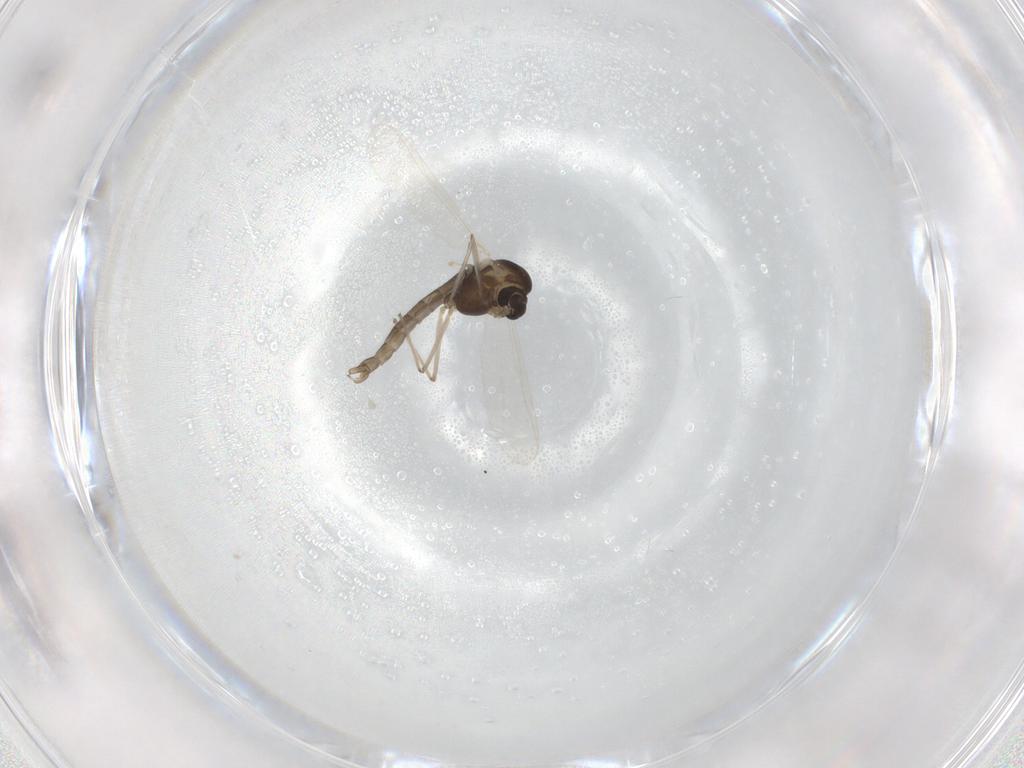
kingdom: Animalia
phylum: Arthropoda
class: Insecta
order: Diptera
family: Chironomidae
